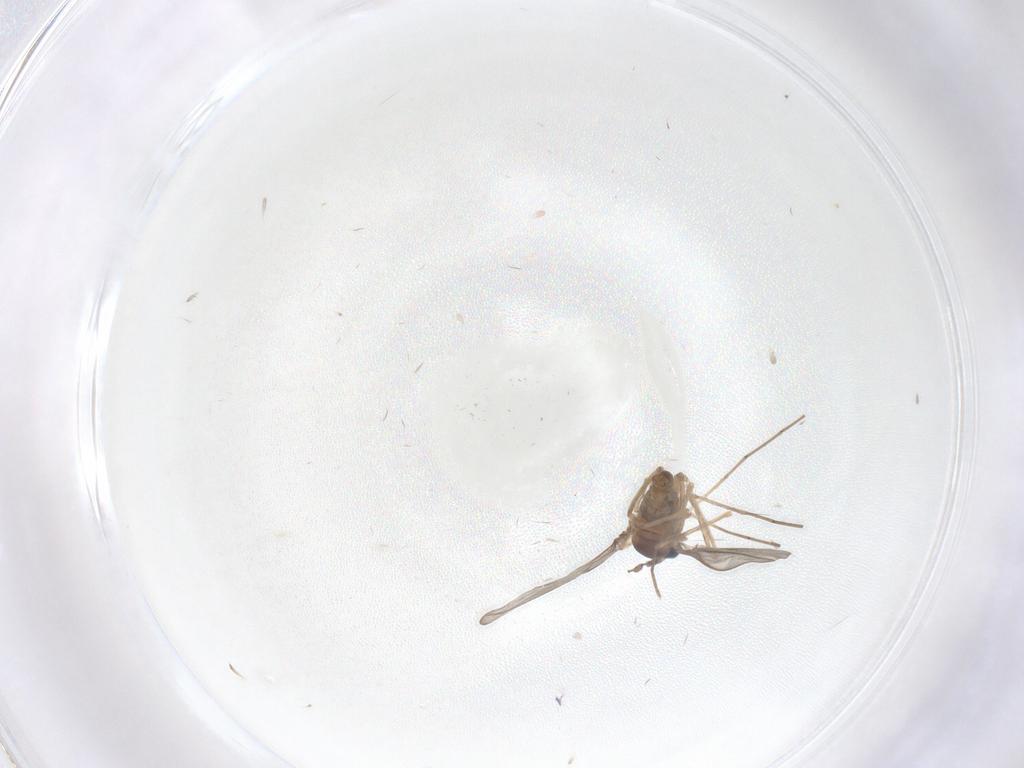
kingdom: Animalia
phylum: Arthropoda
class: Insecta
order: Diptera
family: Cecidomyiidae
